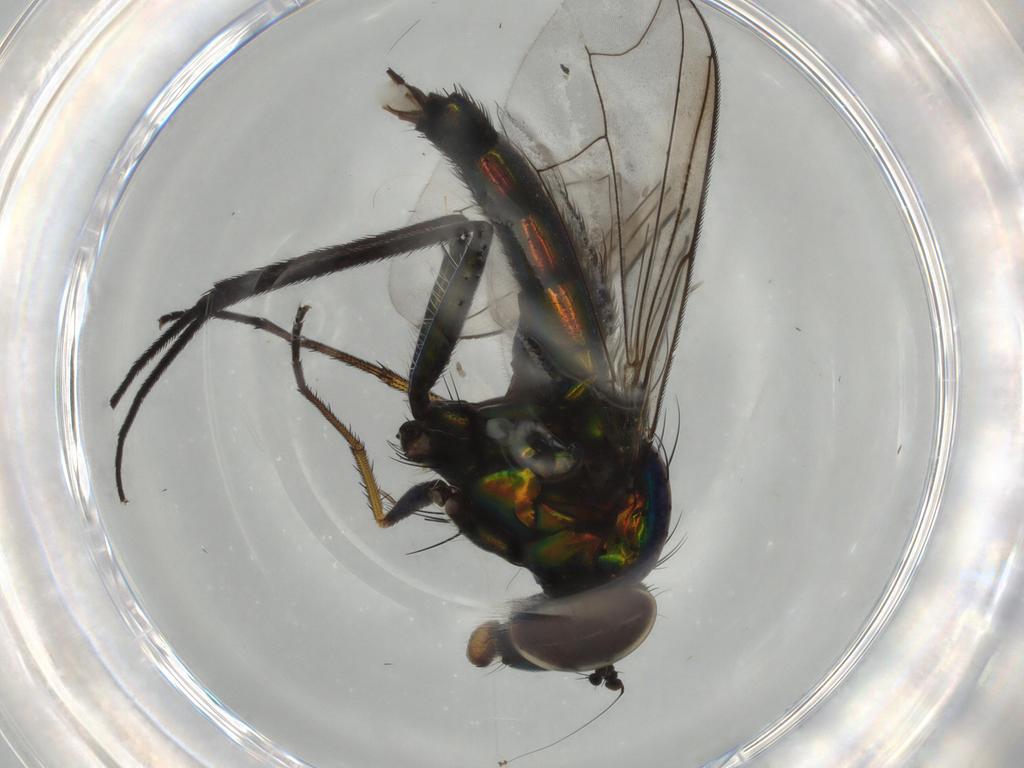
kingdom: Animalia
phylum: Arthropoda
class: Insecta
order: Diptera
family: Dolichopodidae
